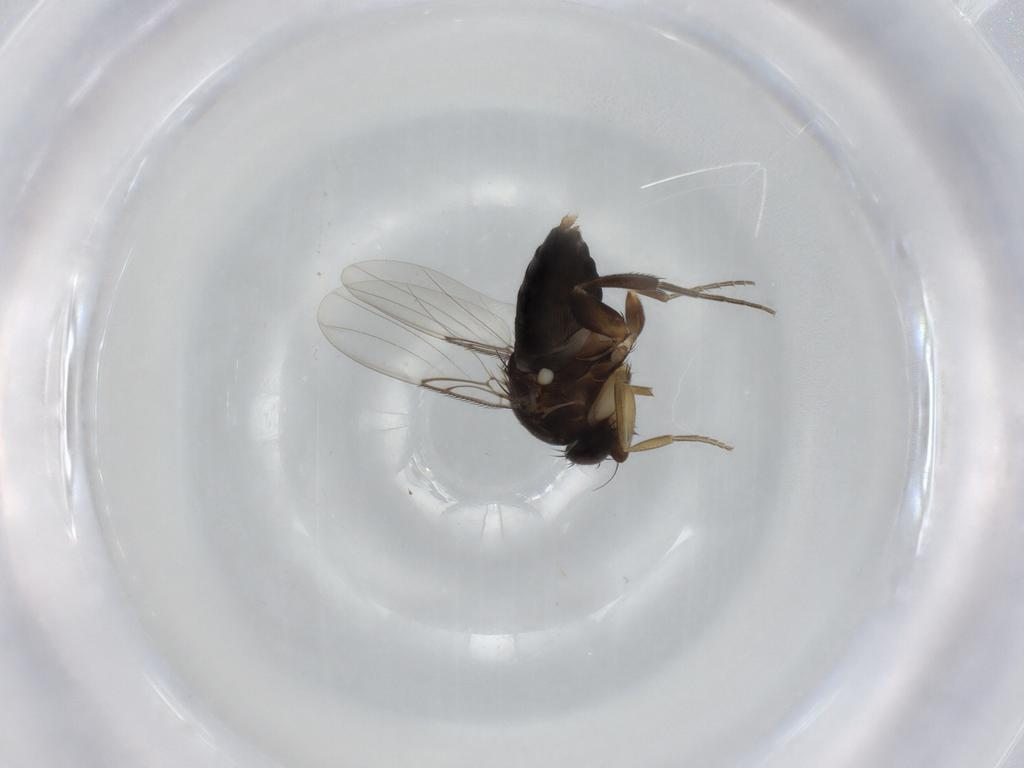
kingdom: Animalia
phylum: Arthropoda
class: Insecta
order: Diptera
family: Phoridae
